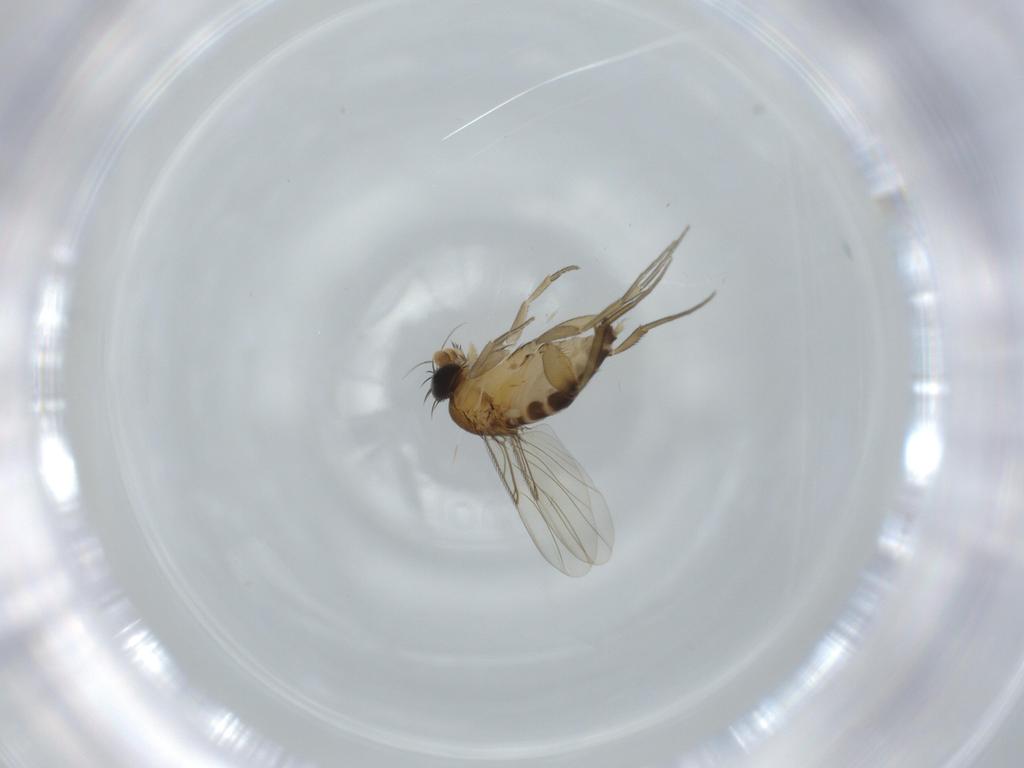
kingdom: Animalia
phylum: Arthropoda
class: Insecta
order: Diptera
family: Phoridae
